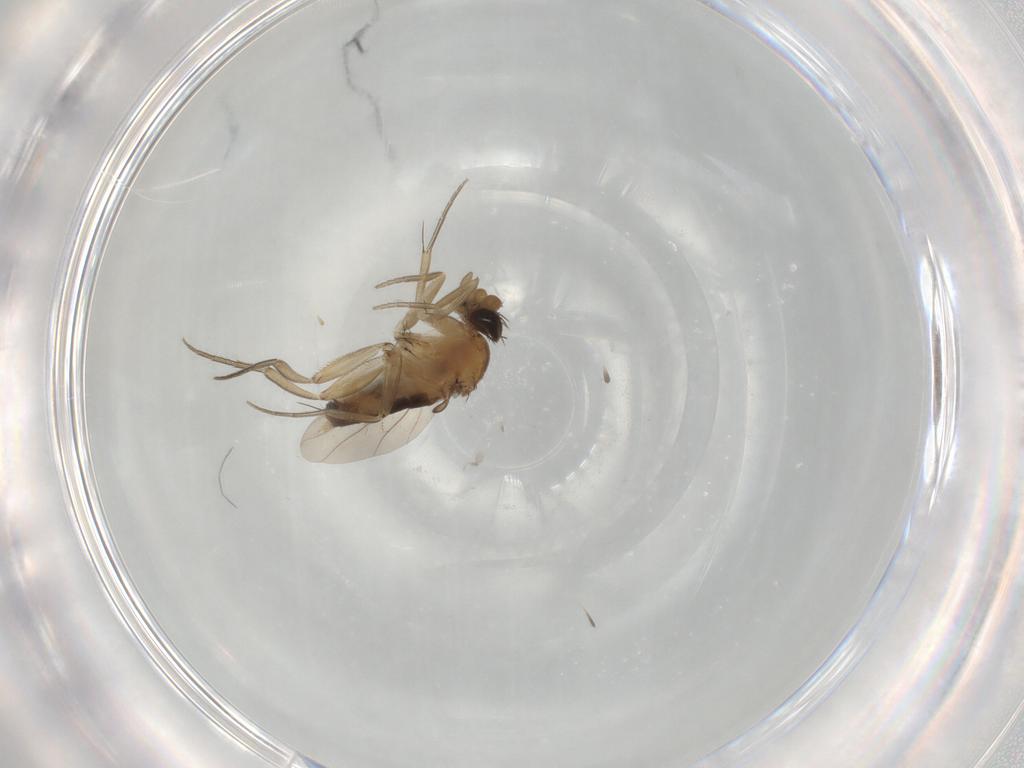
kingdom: Animalia
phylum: Arthropoda
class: Insecta
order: Diptera
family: Phoridae
